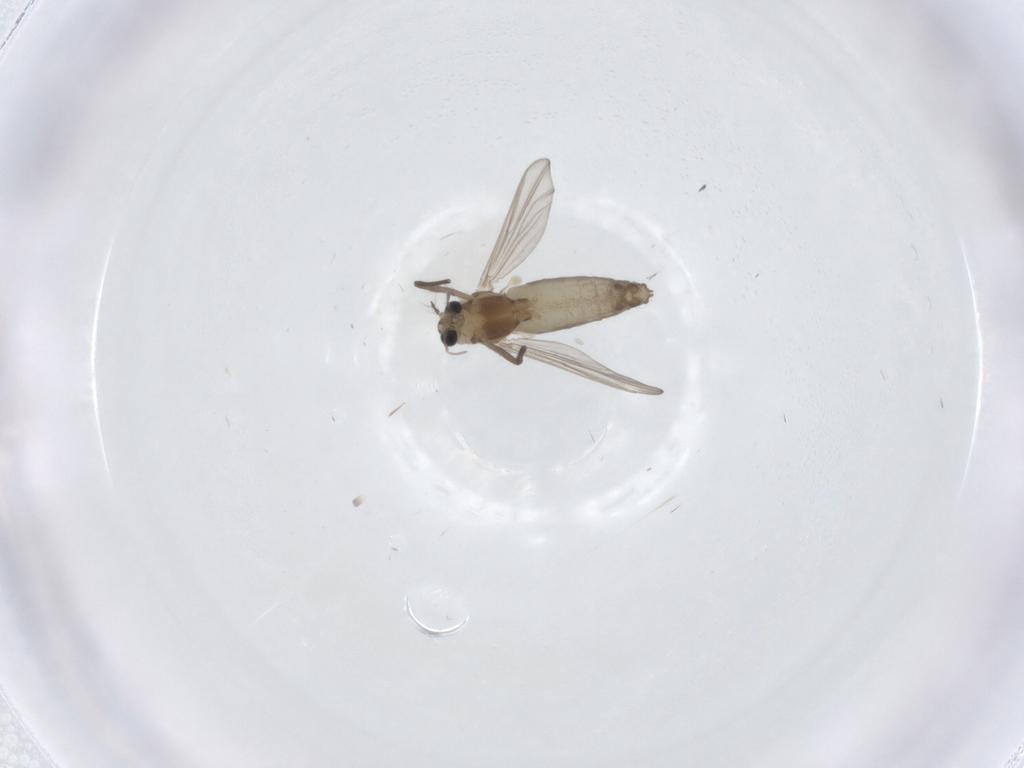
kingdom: Animalia
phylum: Arthropoda
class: Insecta
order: Diptera
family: Chironomidae
